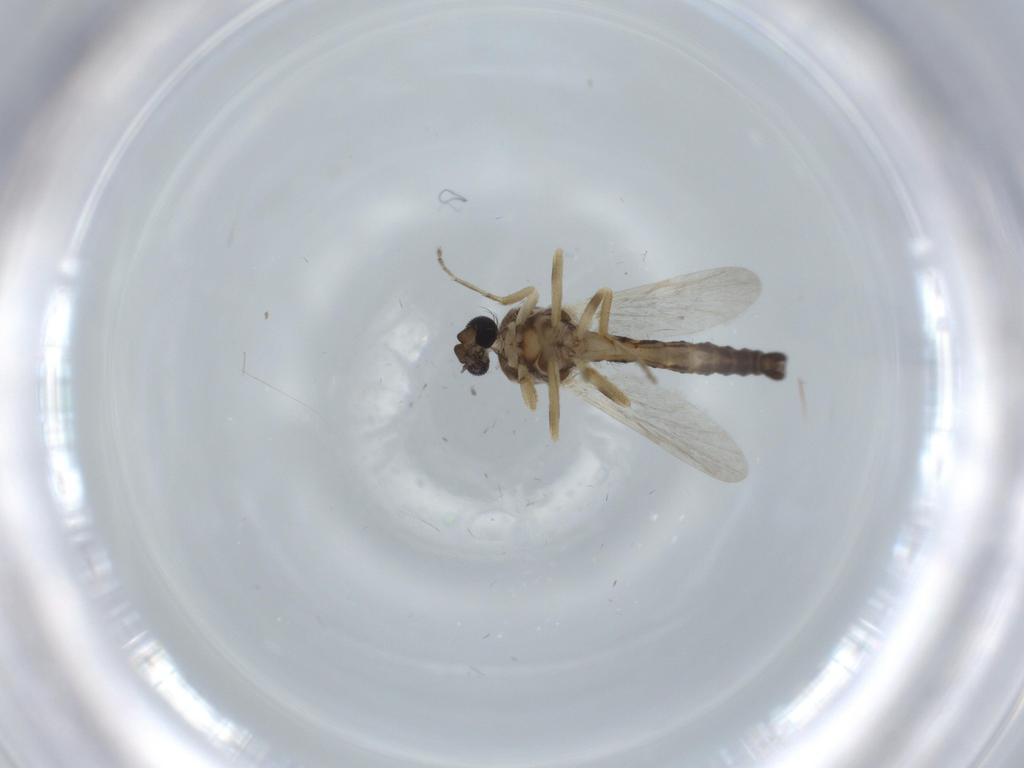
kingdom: Animalia
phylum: Arthropoda
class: Insecta
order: Diptera
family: Ceratopogonidae
